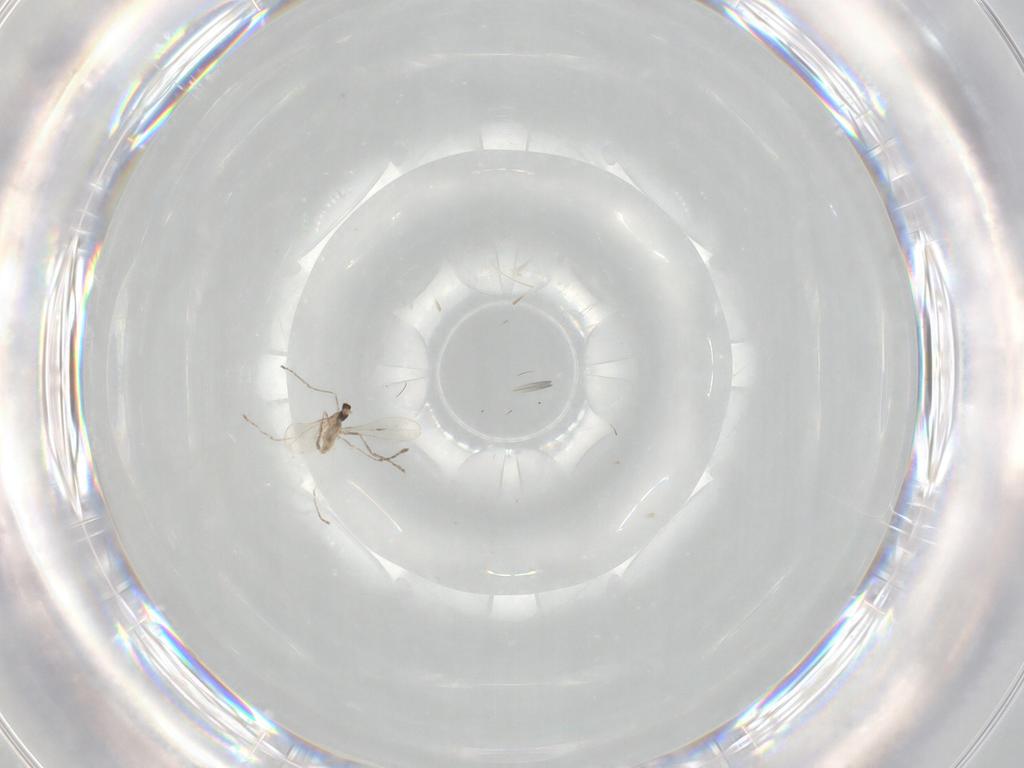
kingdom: Animalia
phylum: Arthropoda
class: Insecta
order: Diptera
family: Cecidomyiidae
